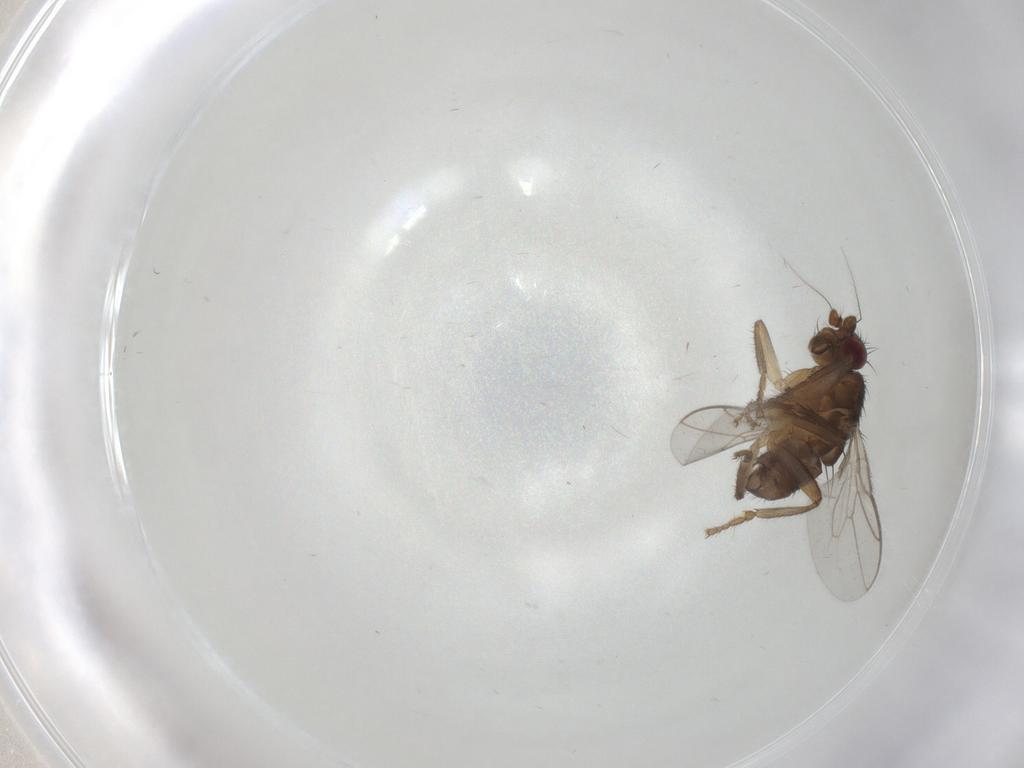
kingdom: Animalia
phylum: Arthropoda
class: Insecta
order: Diptera
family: Sphaeroceridae
